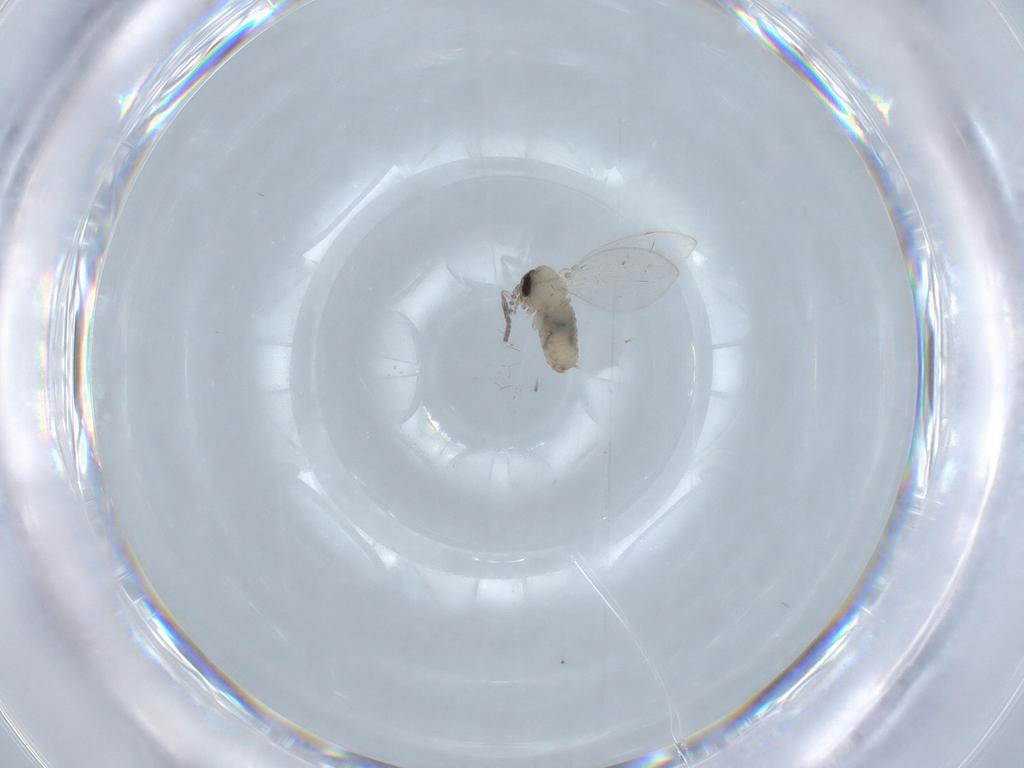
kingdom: Animalia
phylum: Arthropoda
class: Insecta
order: Diptera
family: Psychodidae
